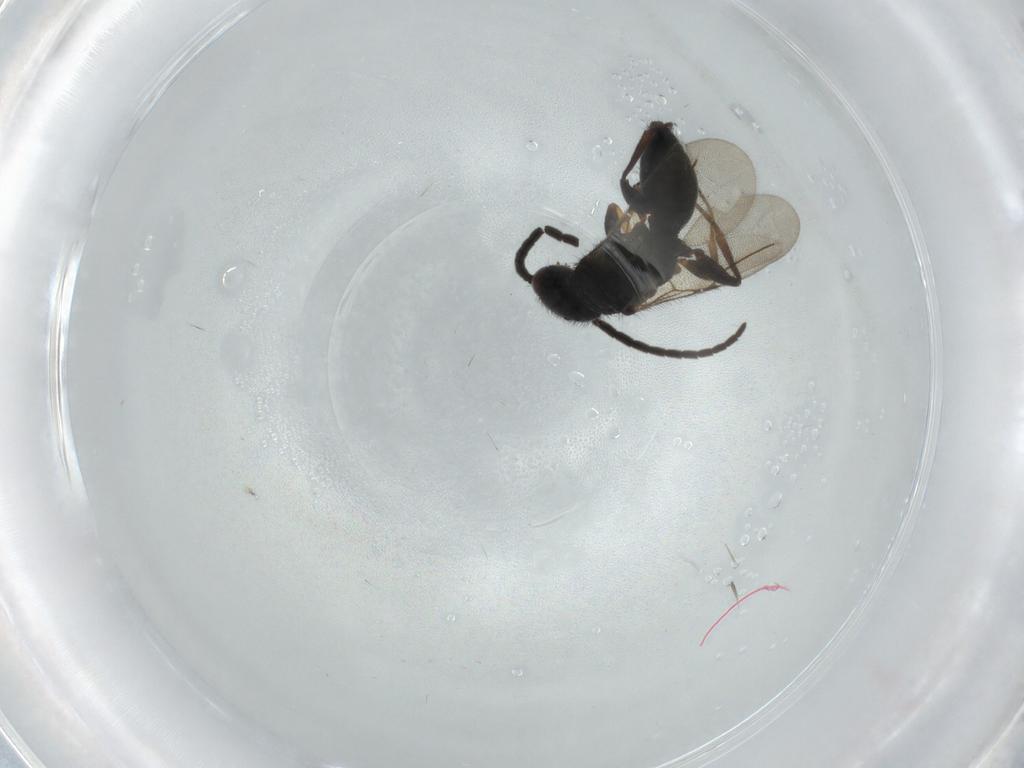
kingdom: Animalia
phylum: Arthropoda
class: Insecta
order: Hymenoptera
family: Bethylidae
